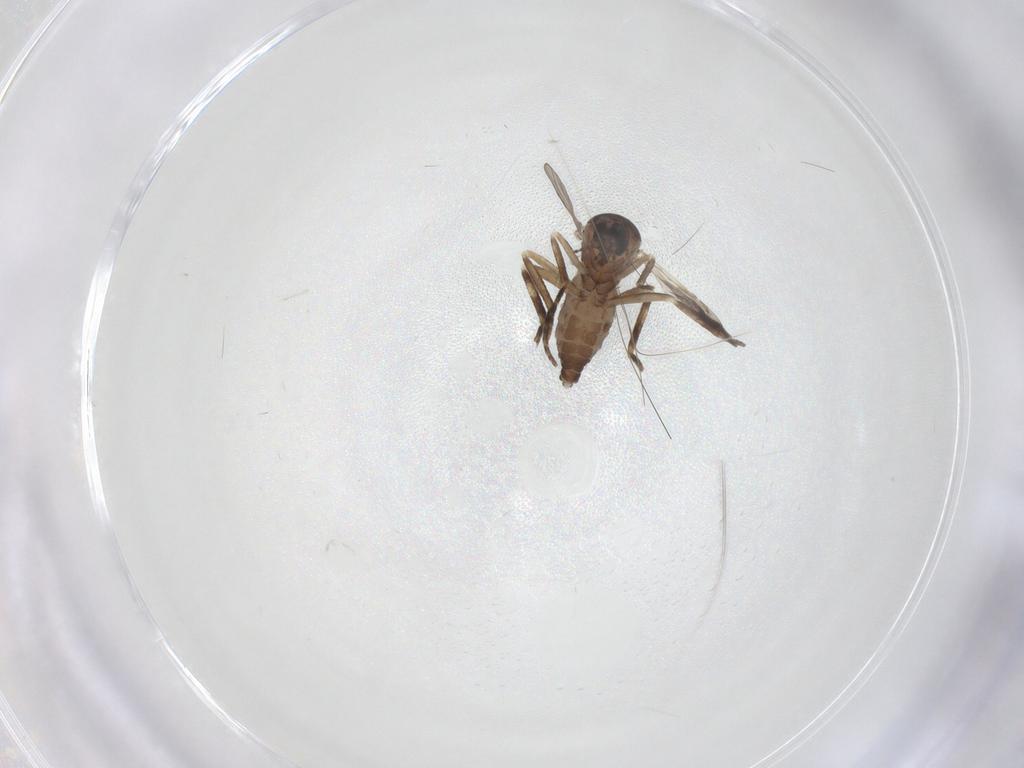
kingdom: Animalia
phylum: Arthropoda
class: Insecta
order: Diptera
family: Ceratopogonidae
